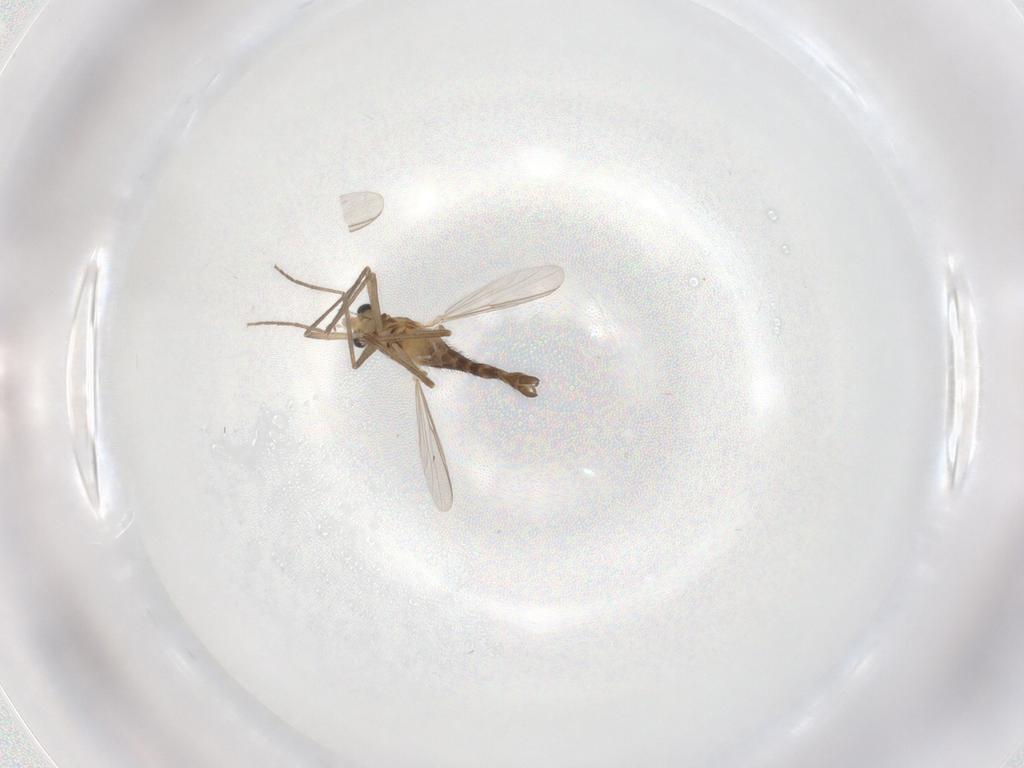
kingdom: Animalia
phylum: Arthropoda
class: Insecta
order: Diptera
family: Chironomidae
